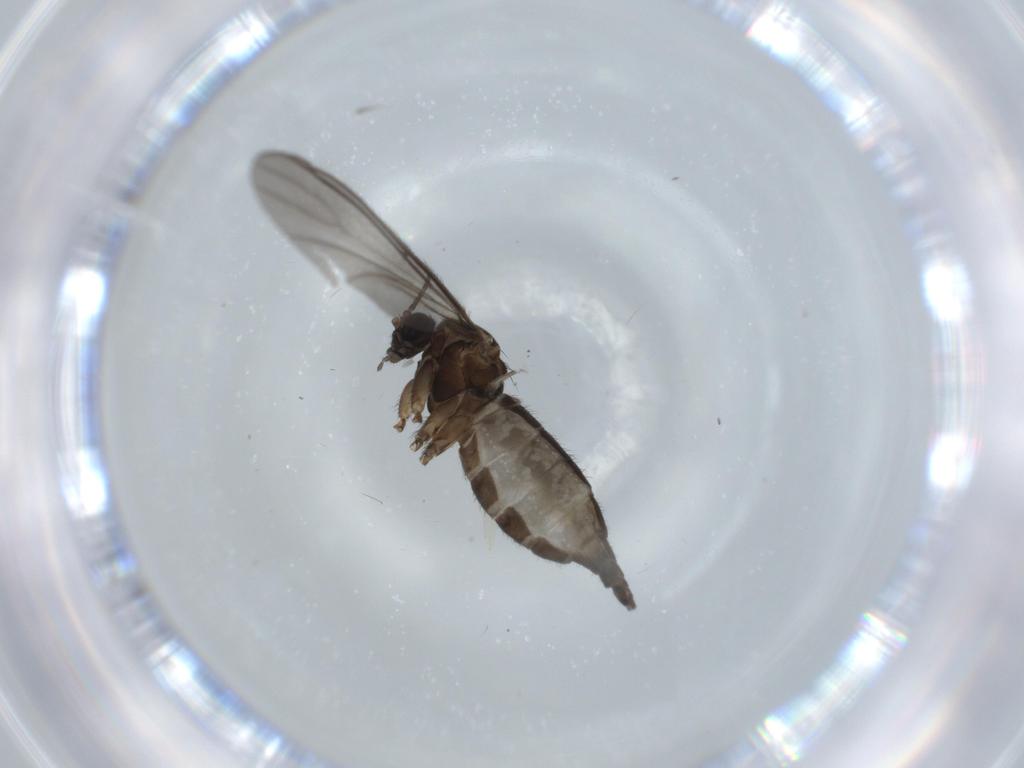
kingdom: Animalia
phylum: Arthropoda
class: Insecta
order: Diptera
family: Sciaridae
